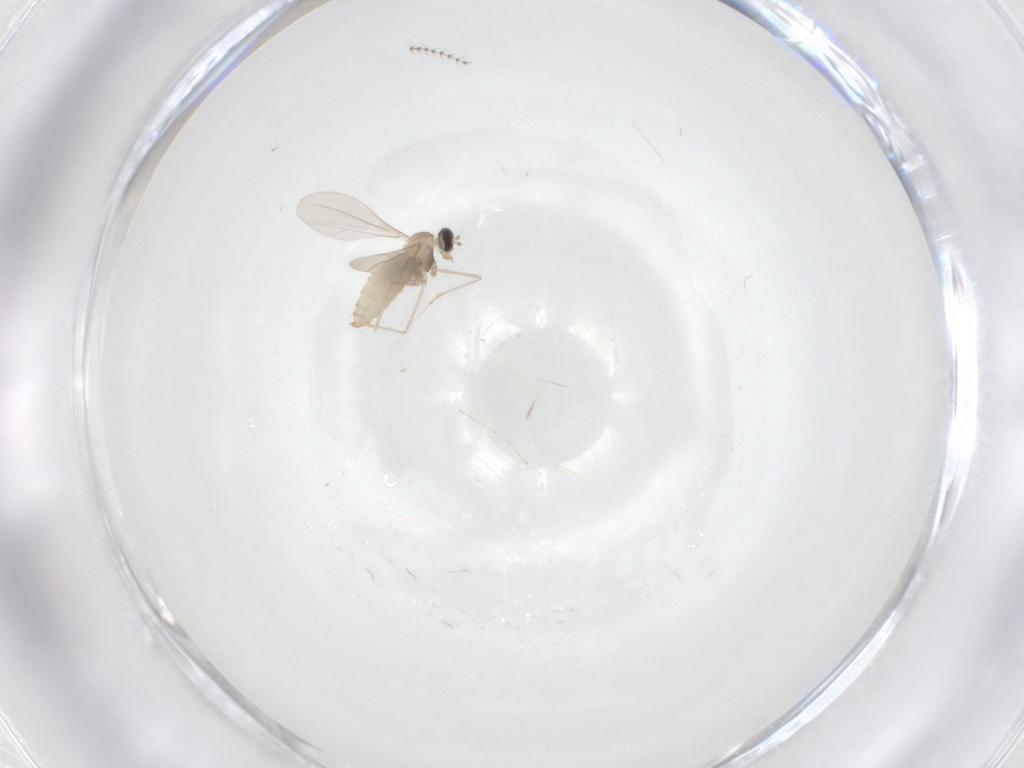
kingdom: Animalia
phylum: Arthropoda
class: Insecta
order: Diptera
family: Cecidomyiidae
